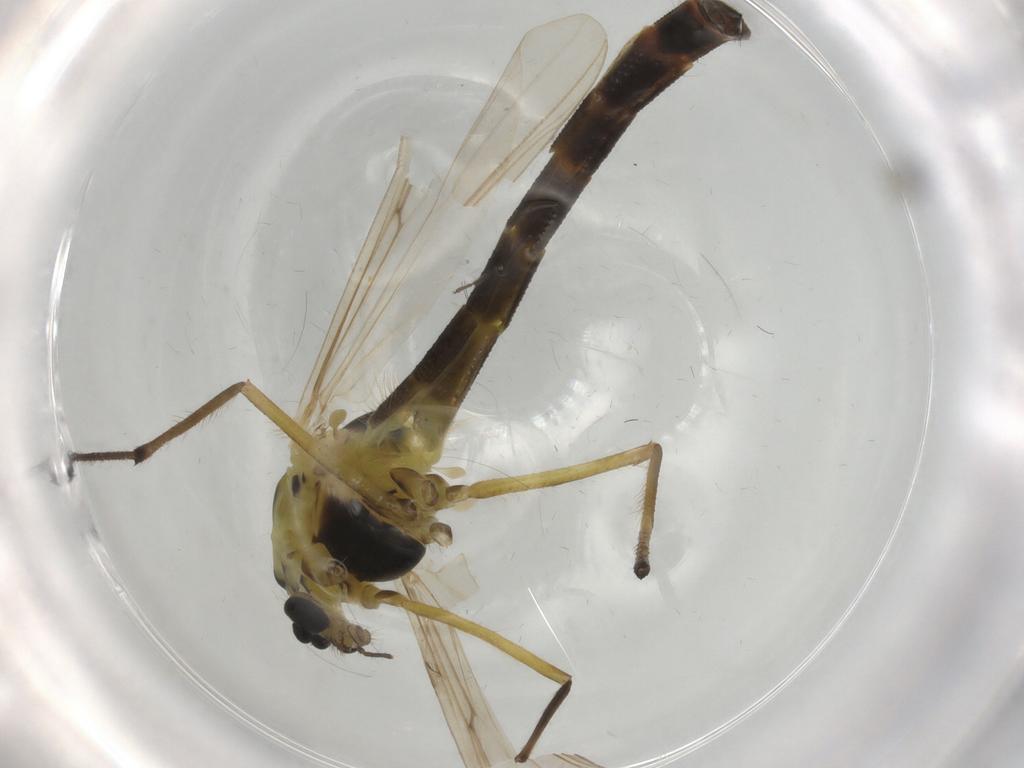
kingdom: Animalia
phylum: Arthropoda
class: Insecta
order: Diptera
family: Chironomidae
